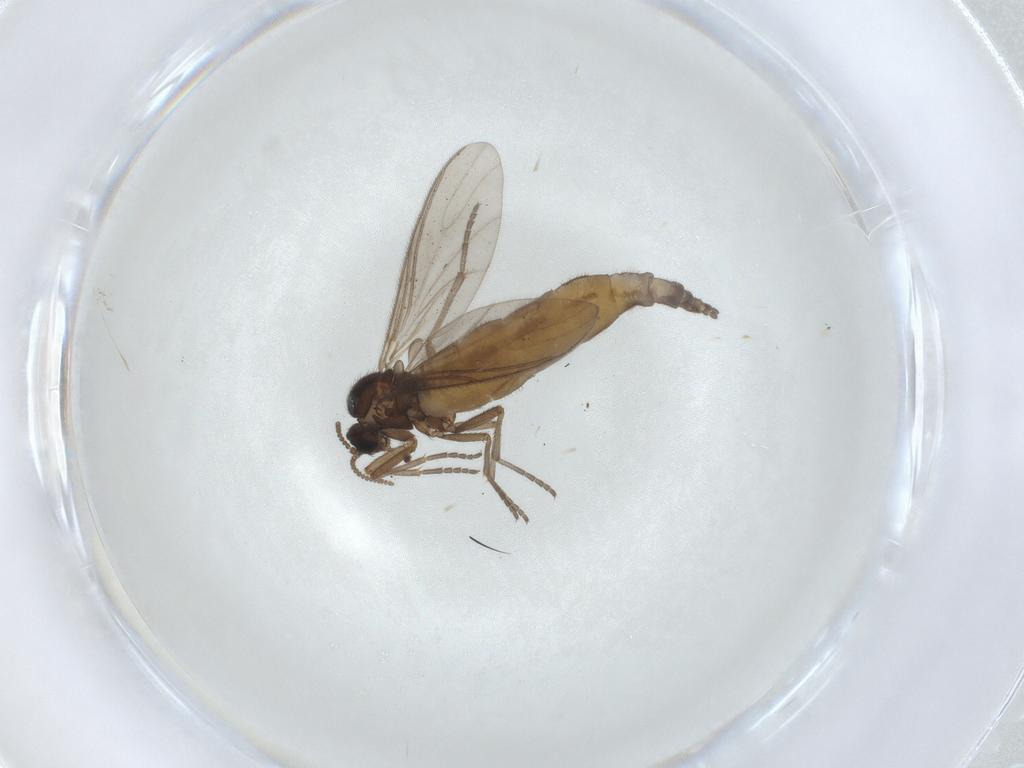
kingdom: Animalia
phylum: Arthropoda
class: Insecta
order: Diptera
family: Sciaridae
